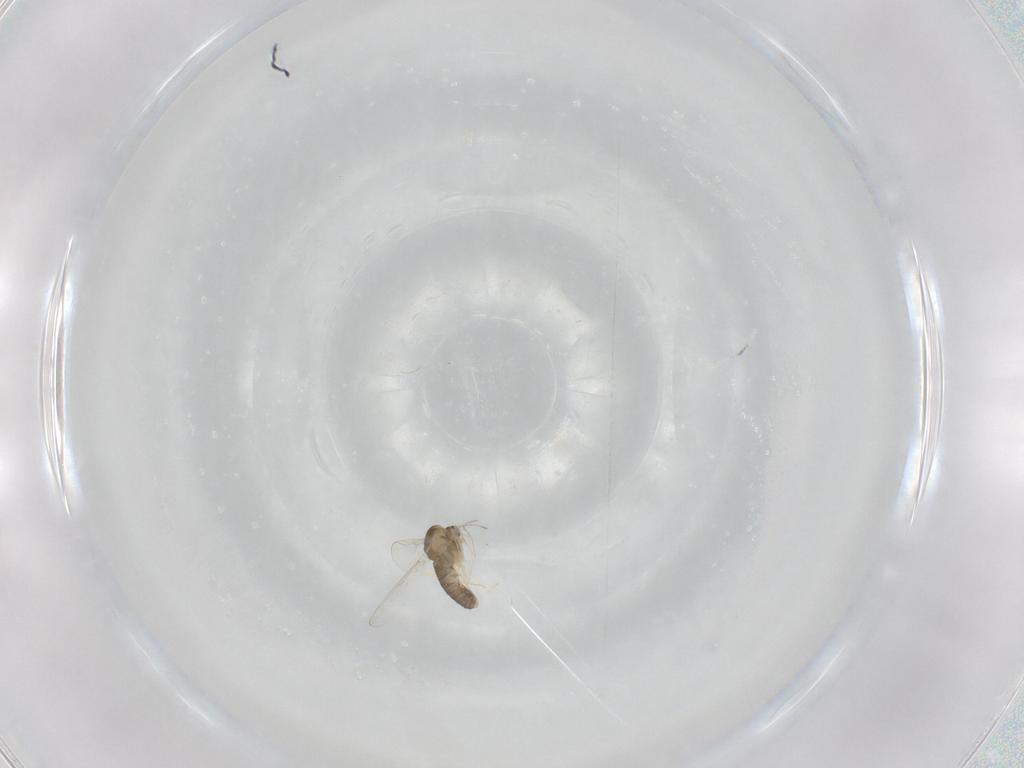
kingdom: Animalia
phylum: Arthropoda
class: Insecta
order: Diptera
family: Chironomidae
